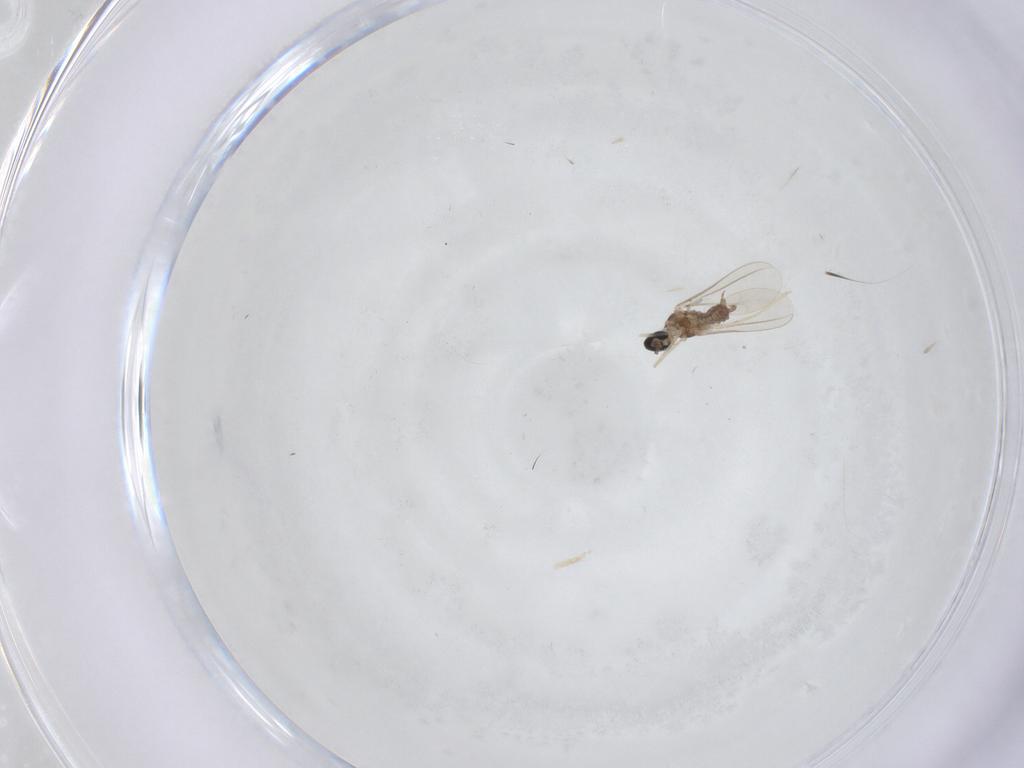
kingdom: Animalia
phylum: Arthropoda
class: Insecta
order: Diptera
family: Cecidomyiidae
